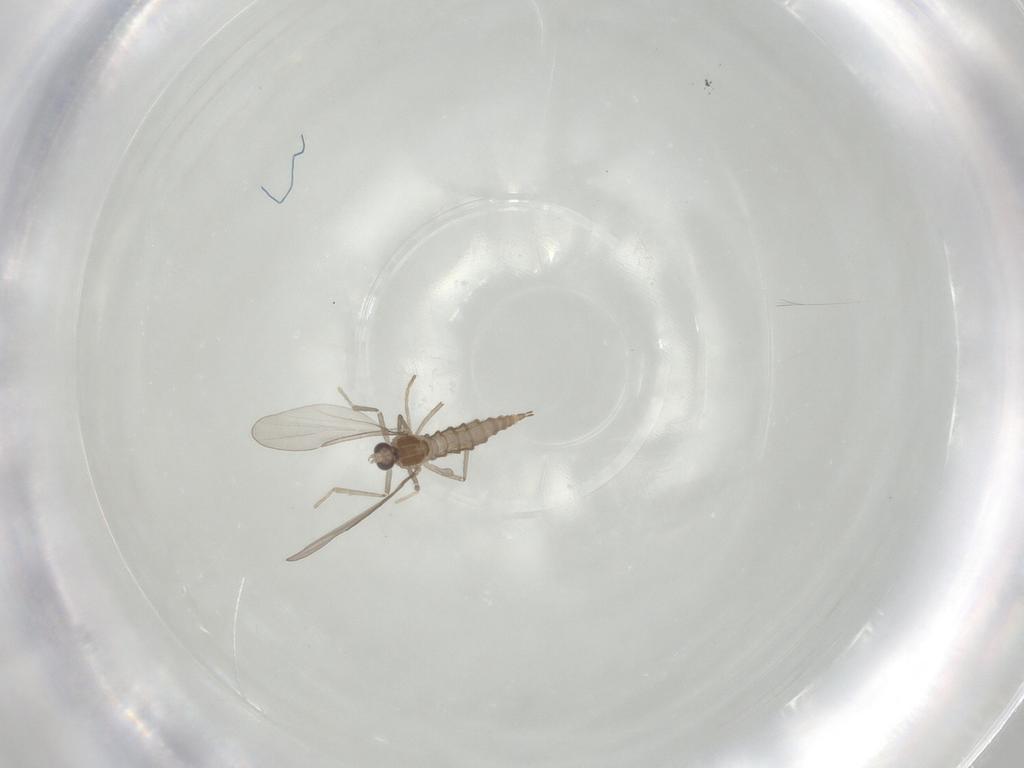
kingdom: Animalia
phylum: Arthropoda
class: Insecta
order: Diptera
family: Cecidomyiidae
